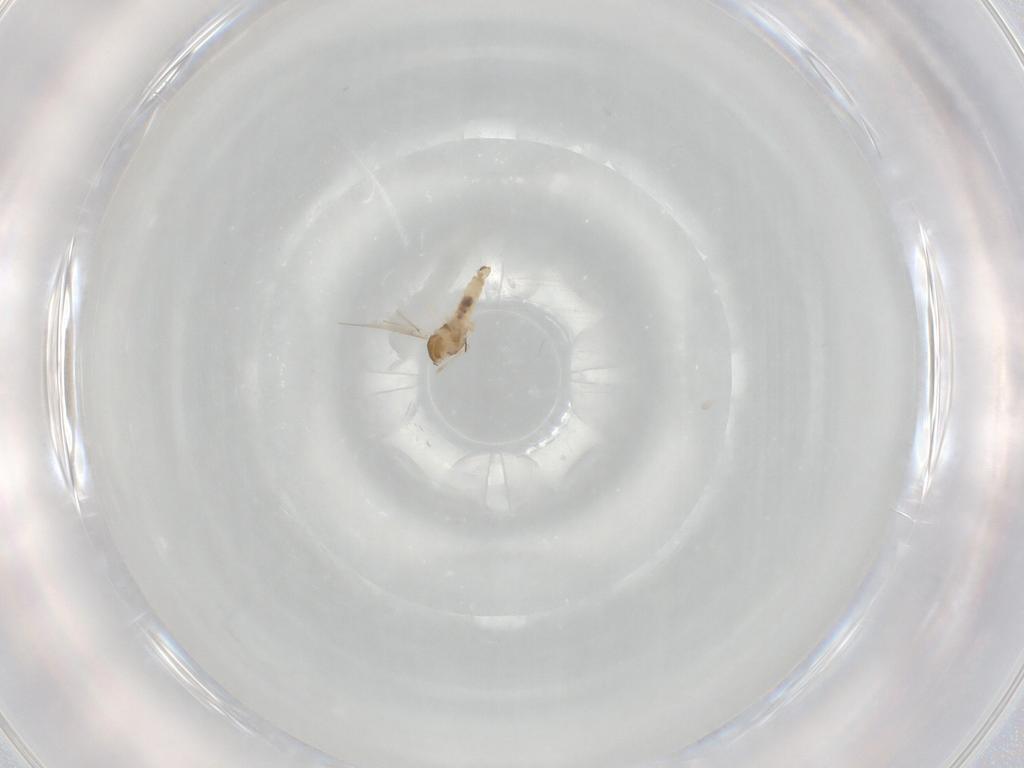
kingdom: Animalia
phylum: Arthropoda
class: Insecta
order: Diptera
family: Cecidomyiidae
